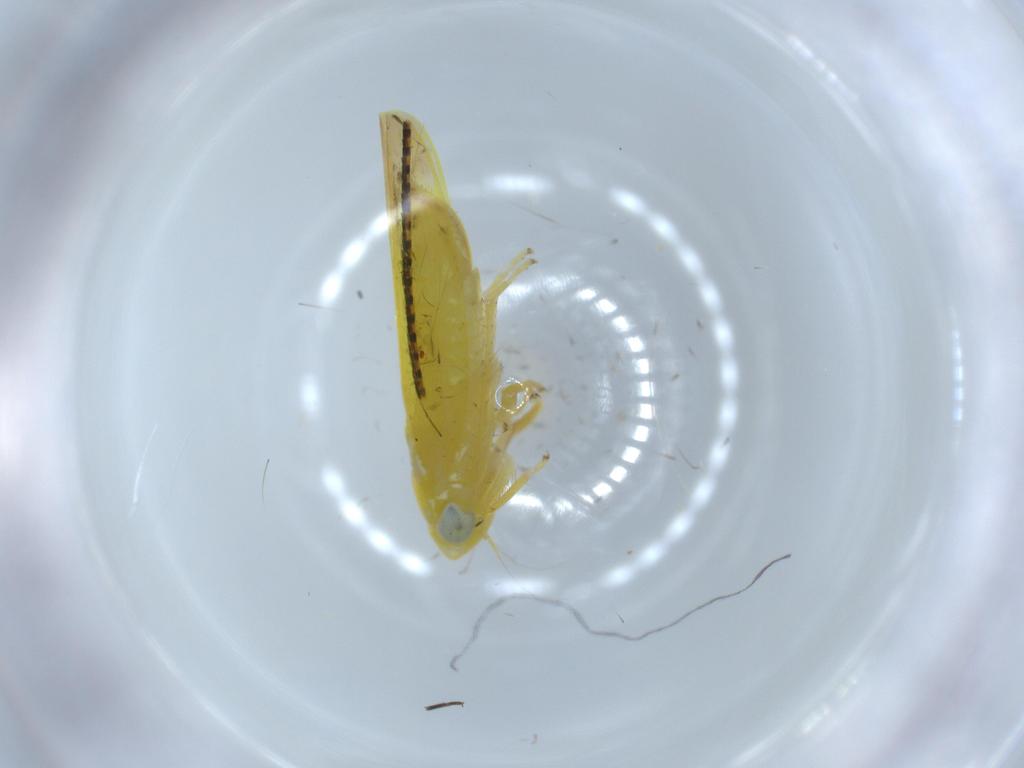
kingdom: Animalia
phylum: Arthropoda
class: Insecta
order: Hemiptera
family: Cicadellidae
